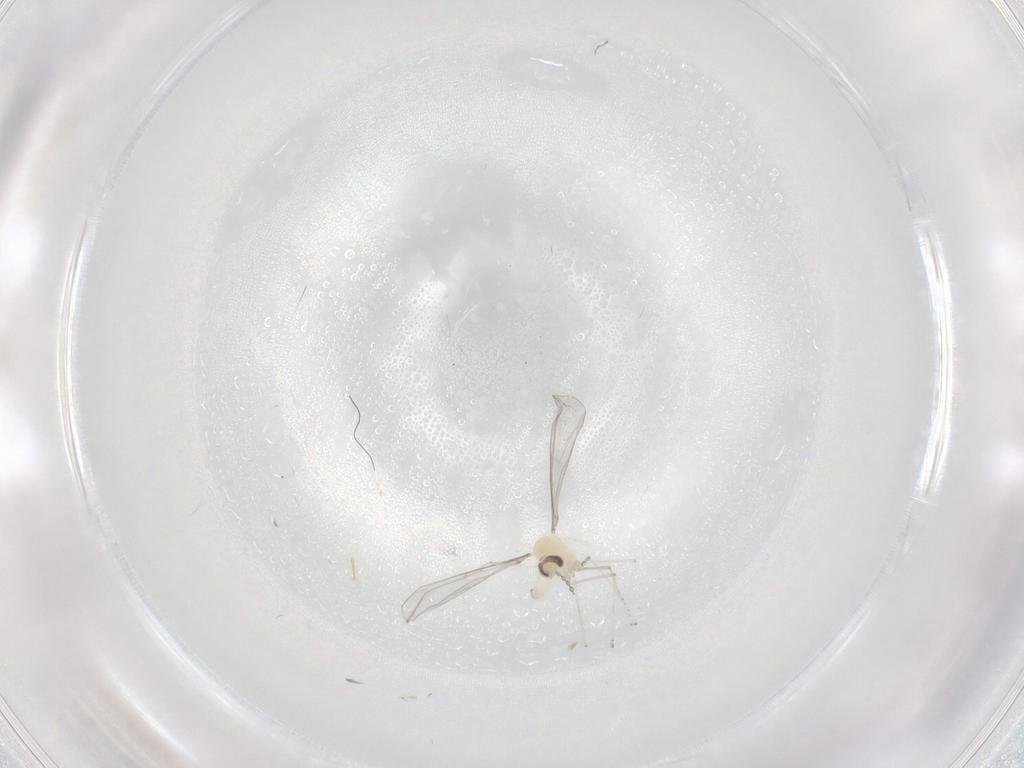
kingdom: Animalia
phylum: Arthropoda
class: Insecta
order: Diptera
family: Cecidomyiidae
